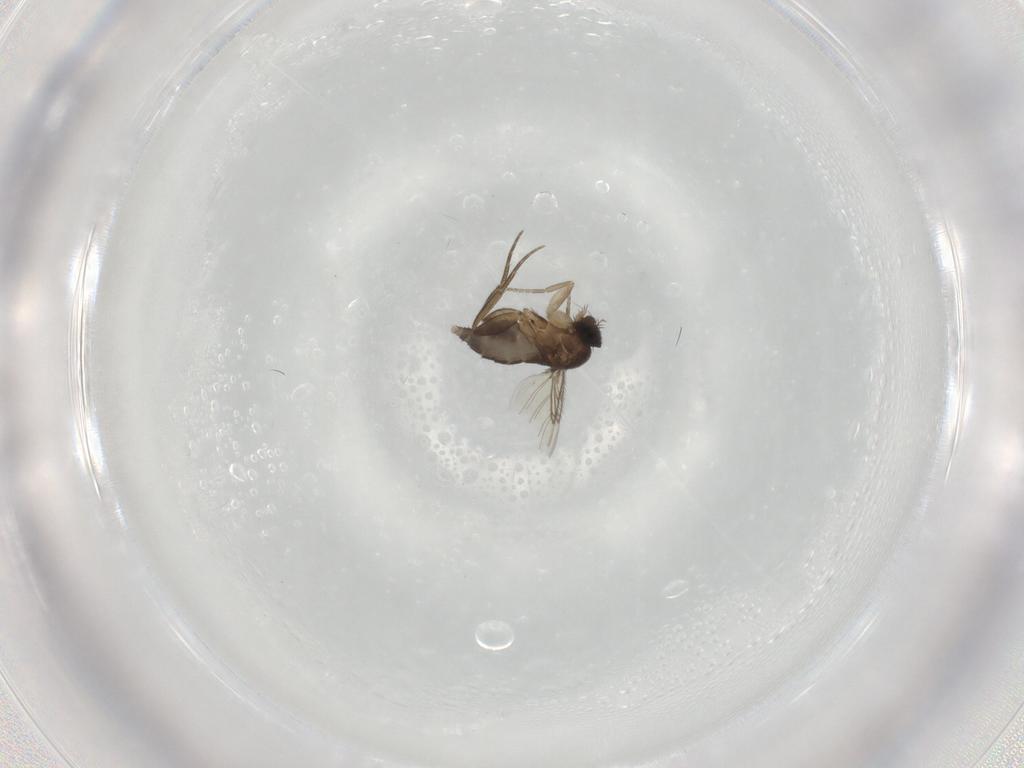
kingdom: Animalia
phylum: Arthropoda
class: Insecta
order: Diptera
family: Phoridae
